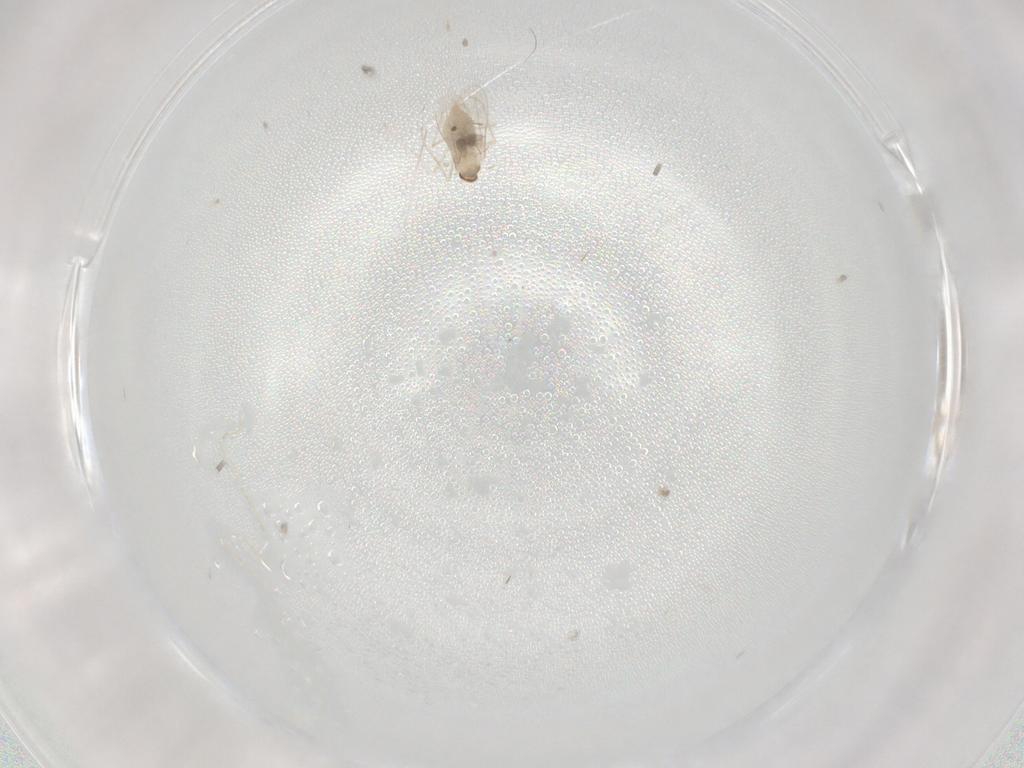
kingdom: Animalia
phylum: Arthropoda
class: Insecta
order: Diptera
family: Cecidomyiidae
